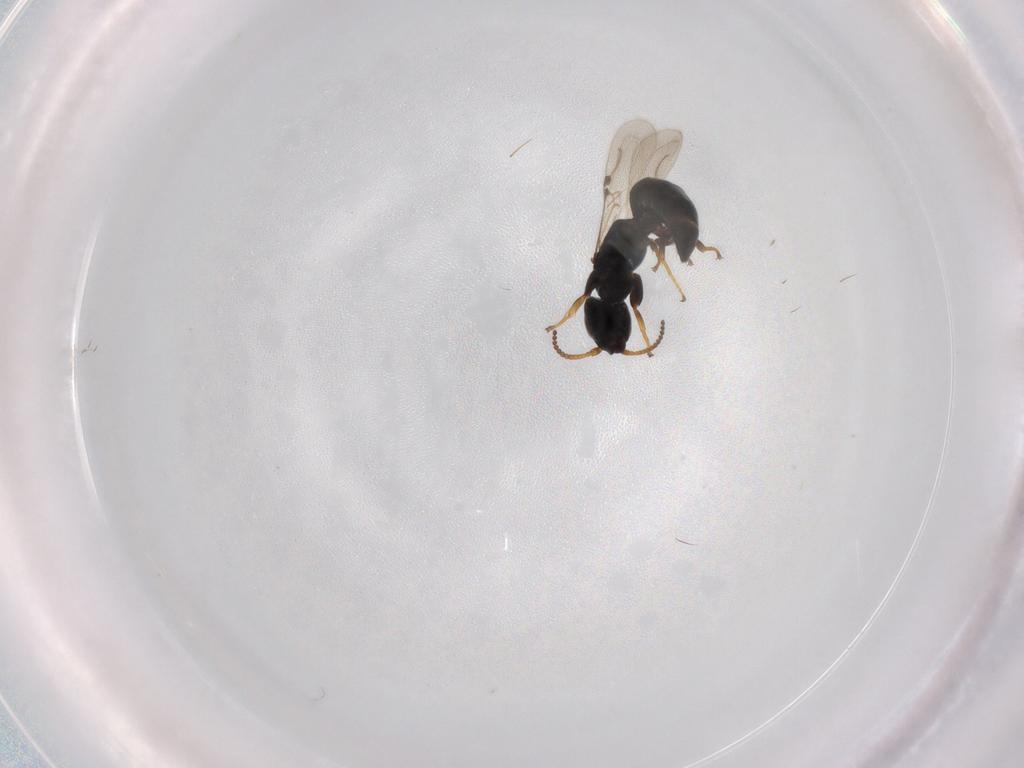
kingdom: Animalia
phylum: Arthropoda
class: Insecta
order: Hymenoptera
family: Bethylidae
